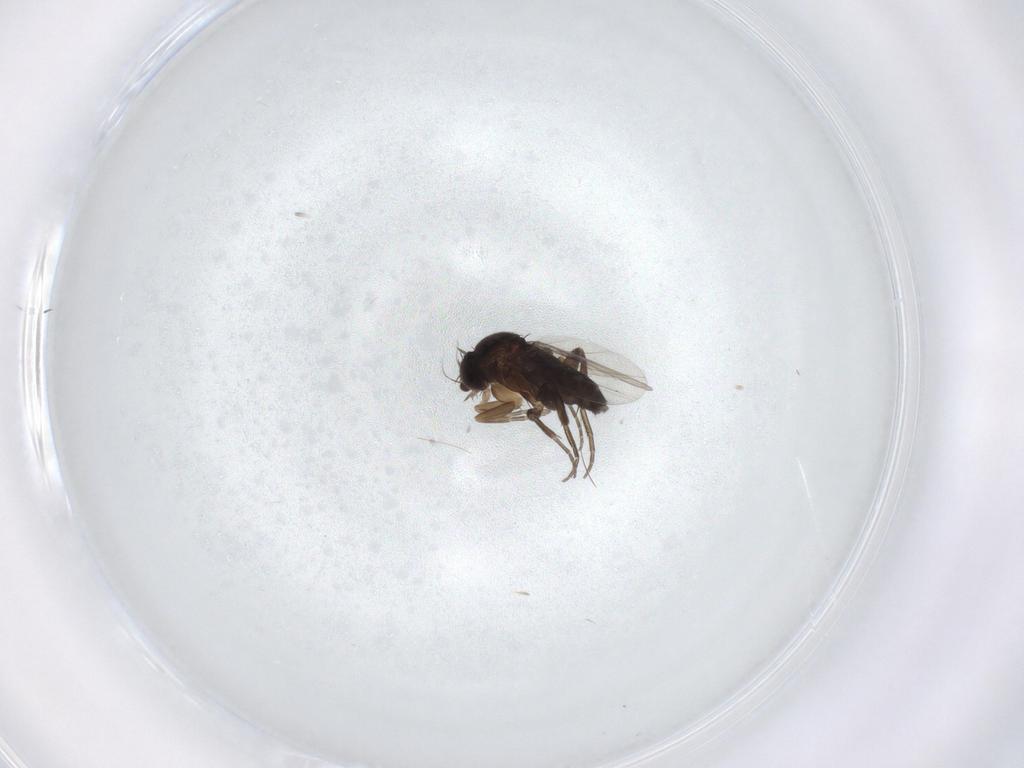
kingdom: Animalia
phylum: Arthropoda
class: Insecta
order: Diptera
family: Phoridae
